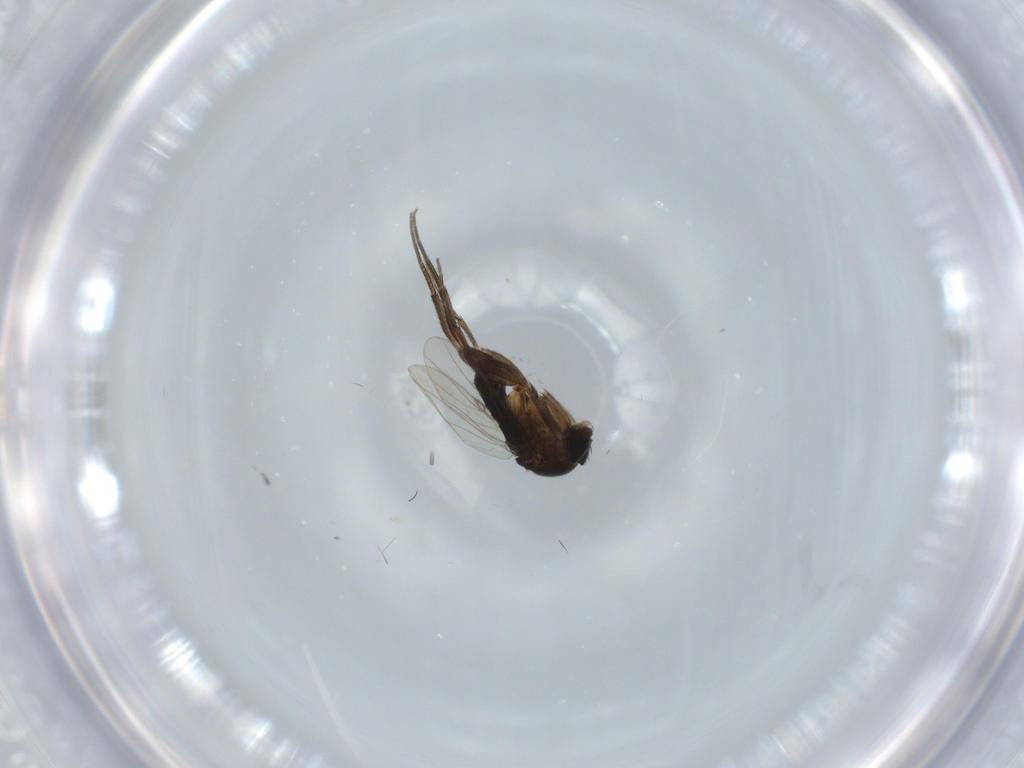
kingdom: Animalia
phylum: Arthropoda
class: Insecta
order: Diptera
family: Phoridae
